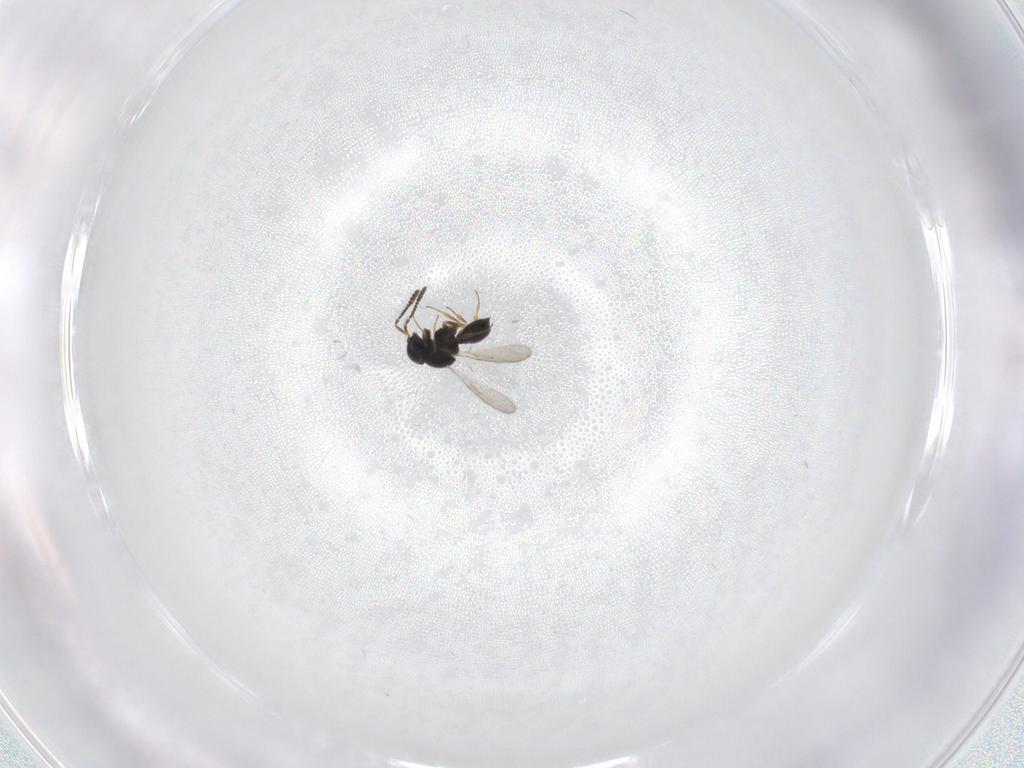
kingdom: Animalia
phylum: Arthropoda
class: Insecta
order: Hymenoptera
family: Scelionidae
